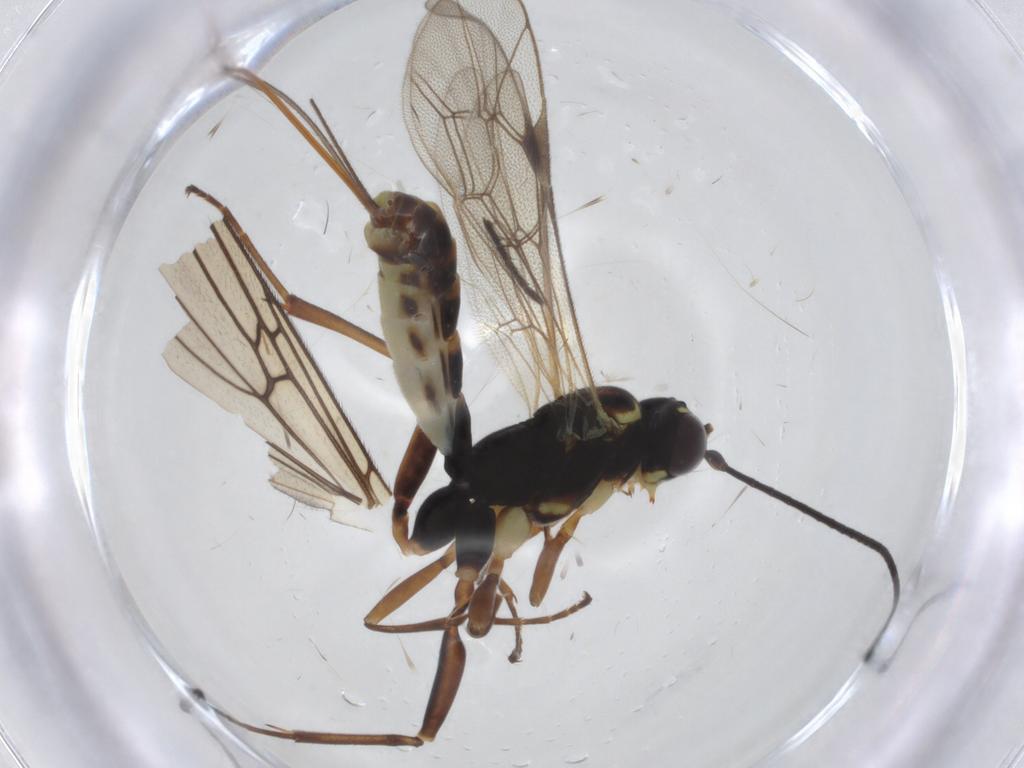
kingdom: Animalia
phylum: Arthropoda
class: Insecta
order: Hymenoptera
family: Ichneumonidae
